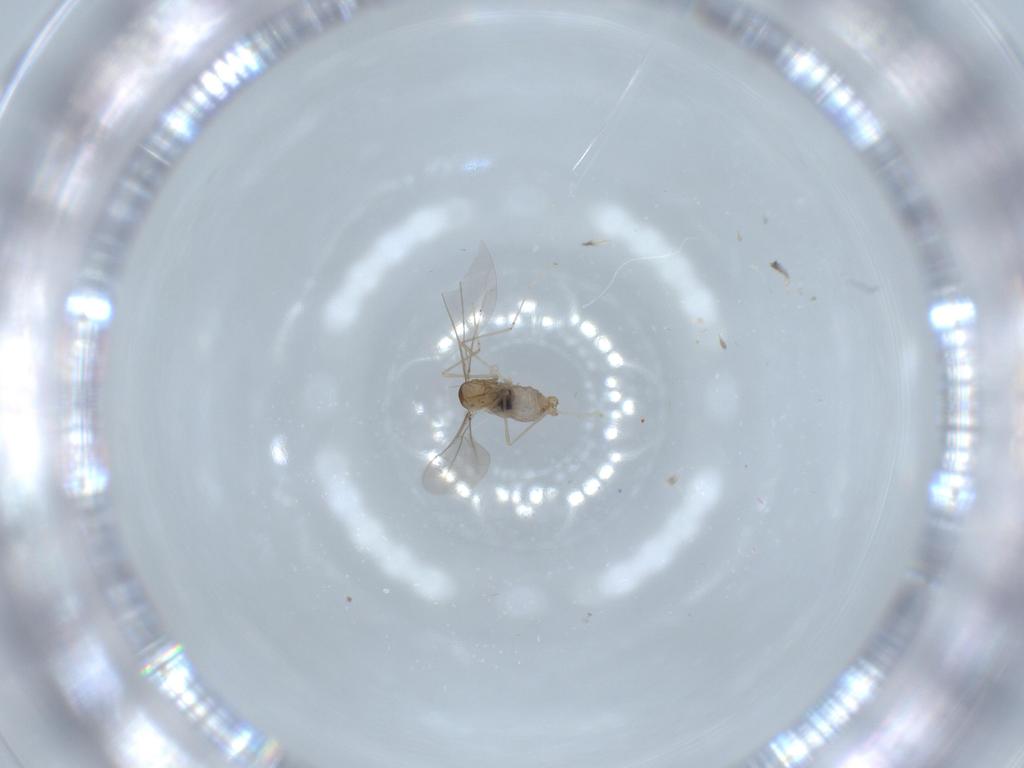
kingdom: Animalia
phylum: Arthropoda
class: Insecta
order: Diptera
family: Cecidomyiidae
